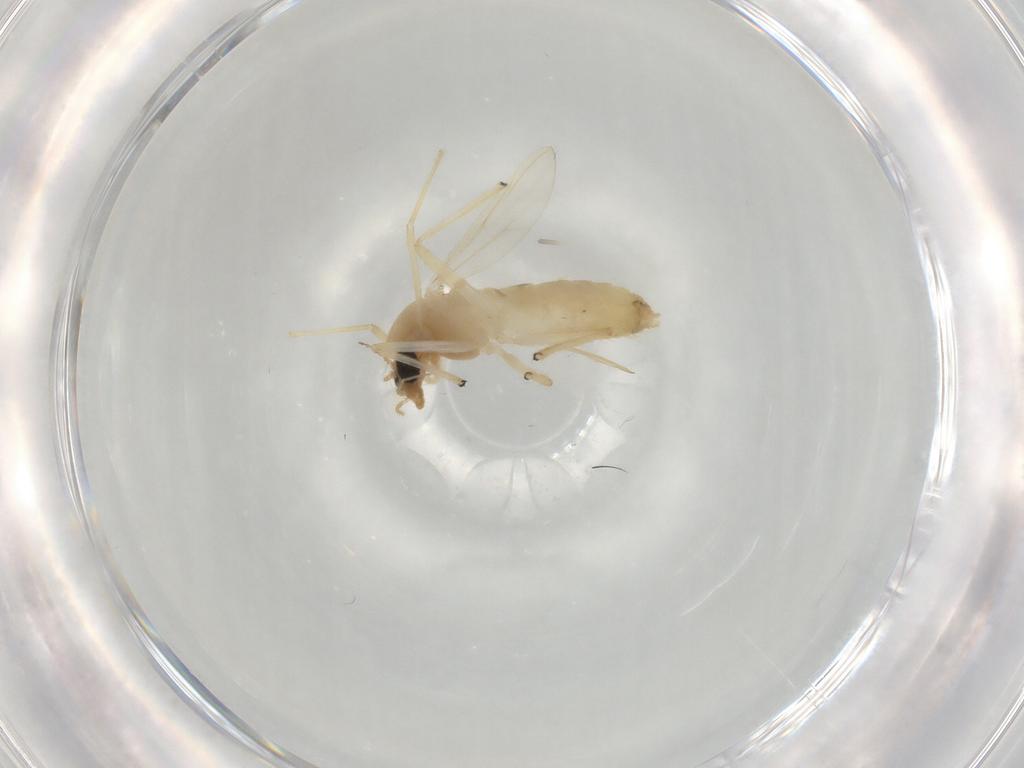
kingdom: Animalia
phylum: Arthropoda
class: Insecta
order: Diptera
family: Chironomidae
